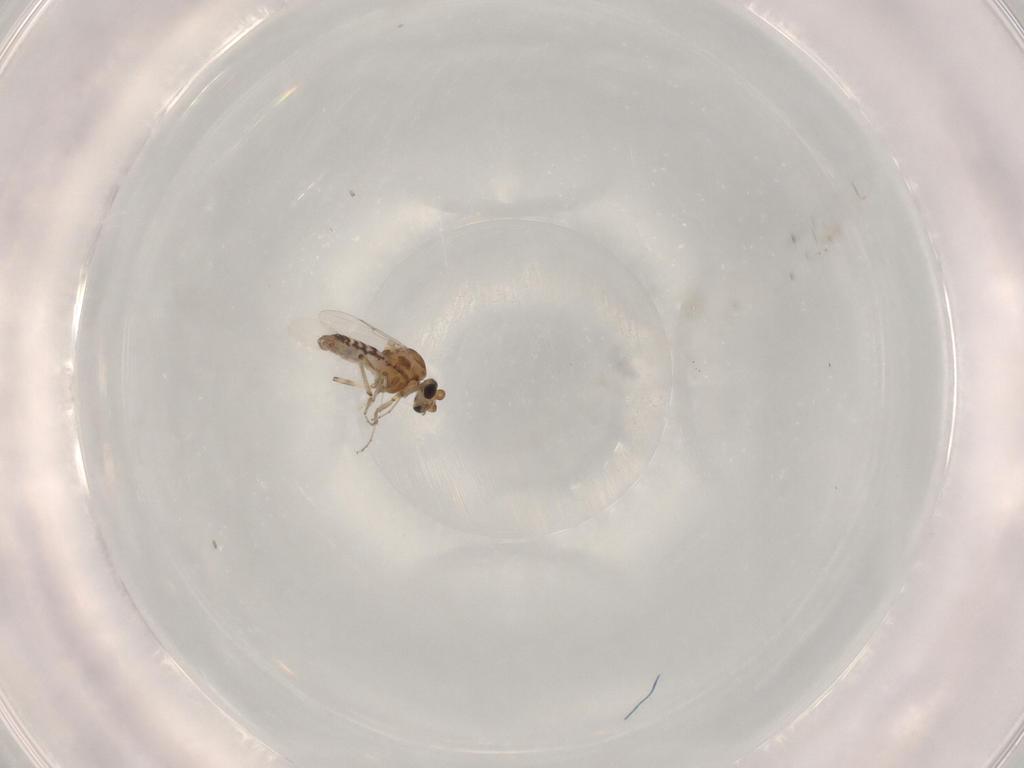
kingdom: Animalia
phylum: Arthropoda
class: Insecta
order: Diptera
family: Ceratopogonidae
